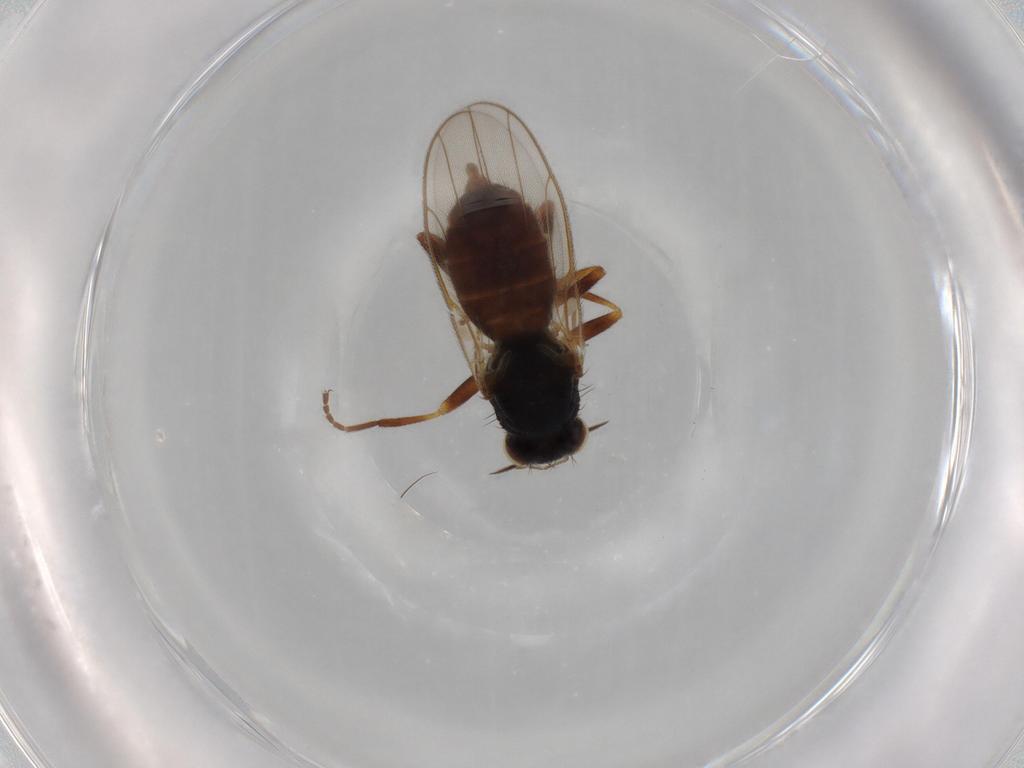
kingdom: Animalia
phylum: Arthropoda
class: Insecta
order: Diptera
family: Chloropidae
